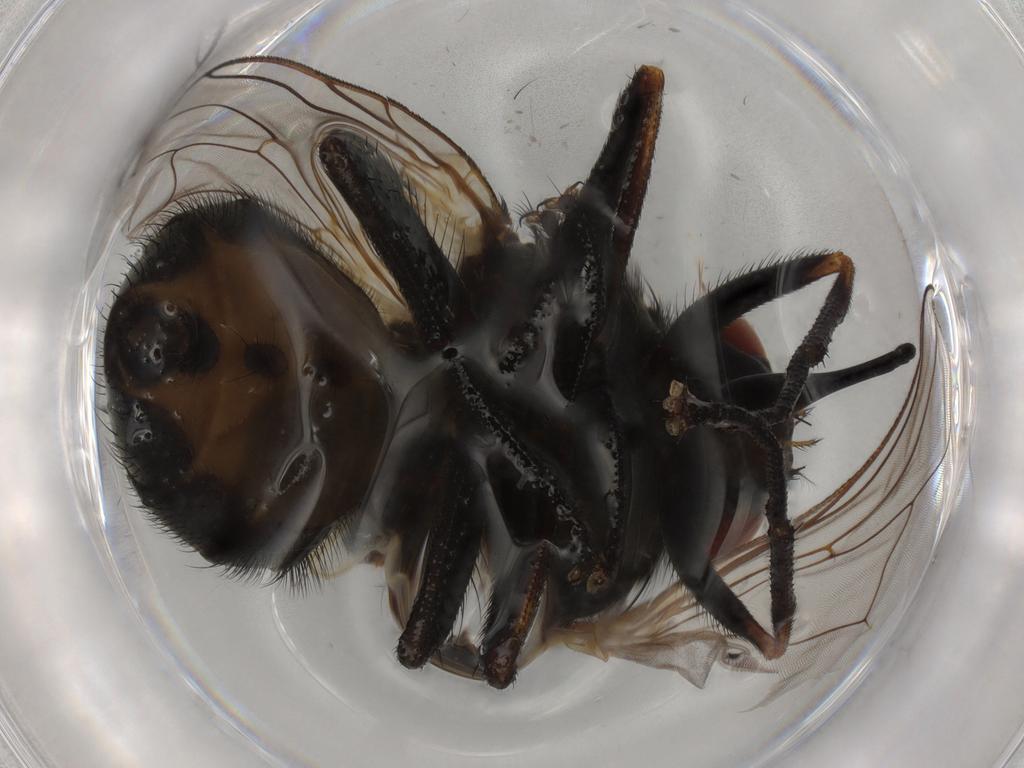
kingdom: Animalia
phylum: Arthropoda
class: Insecta
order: Diptera
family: Muscidae
